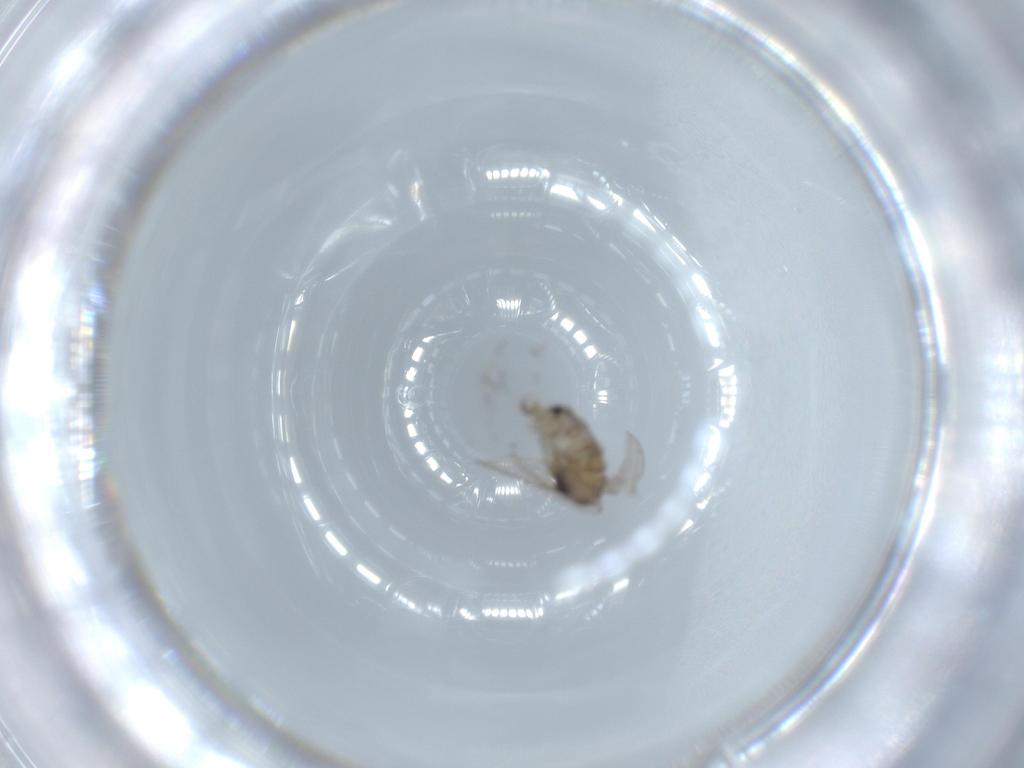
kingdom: Animalia
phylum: Arthropoda
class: Insecta
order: Diptera
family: Psychodidae
